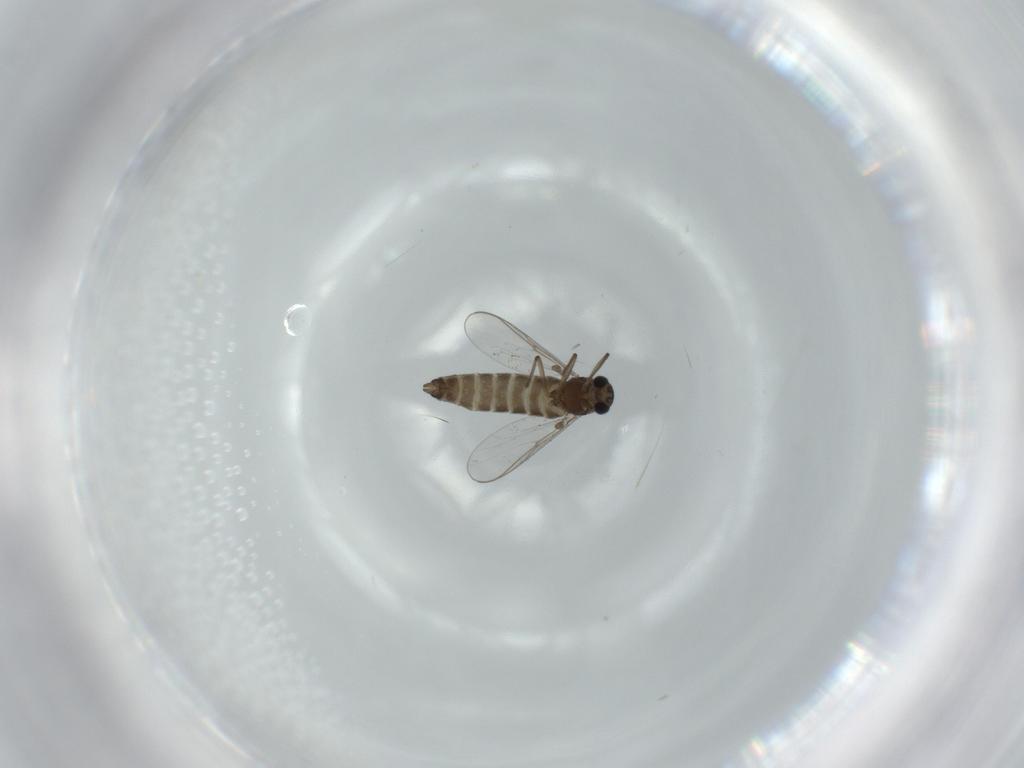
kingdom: Animalia
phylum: Arthropoda
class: Insecta
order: Diptera
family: Chironomidae
